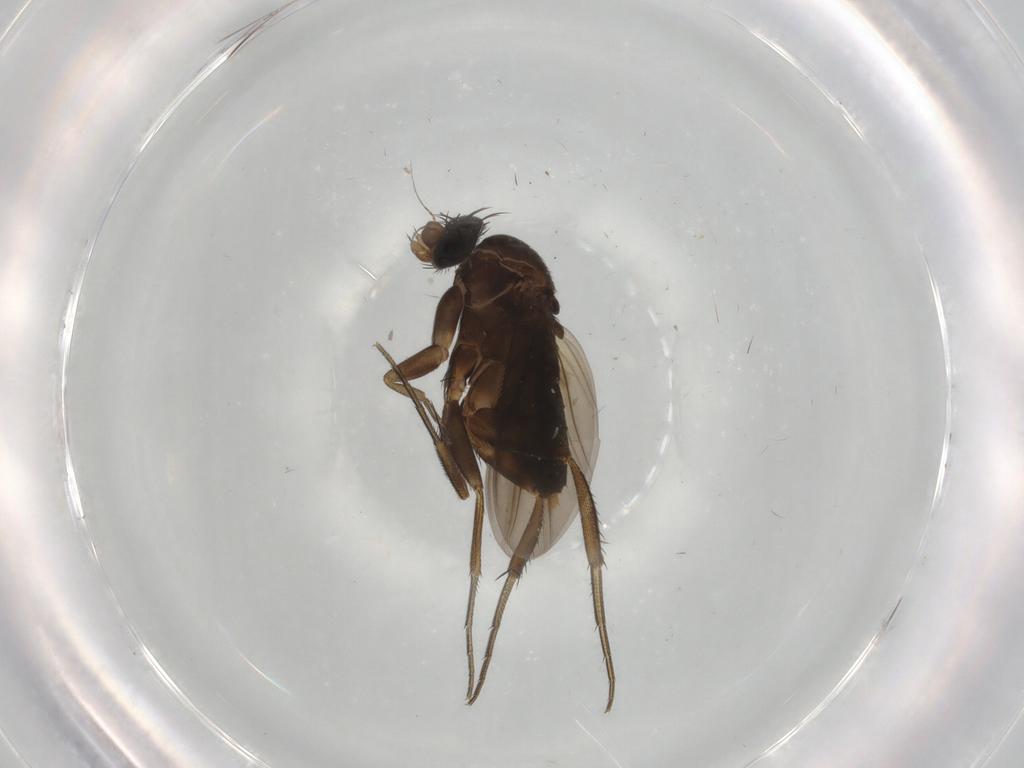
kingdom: Animalia
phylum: Arthropoda
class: Insecta
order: Diptera
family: Phoridae
